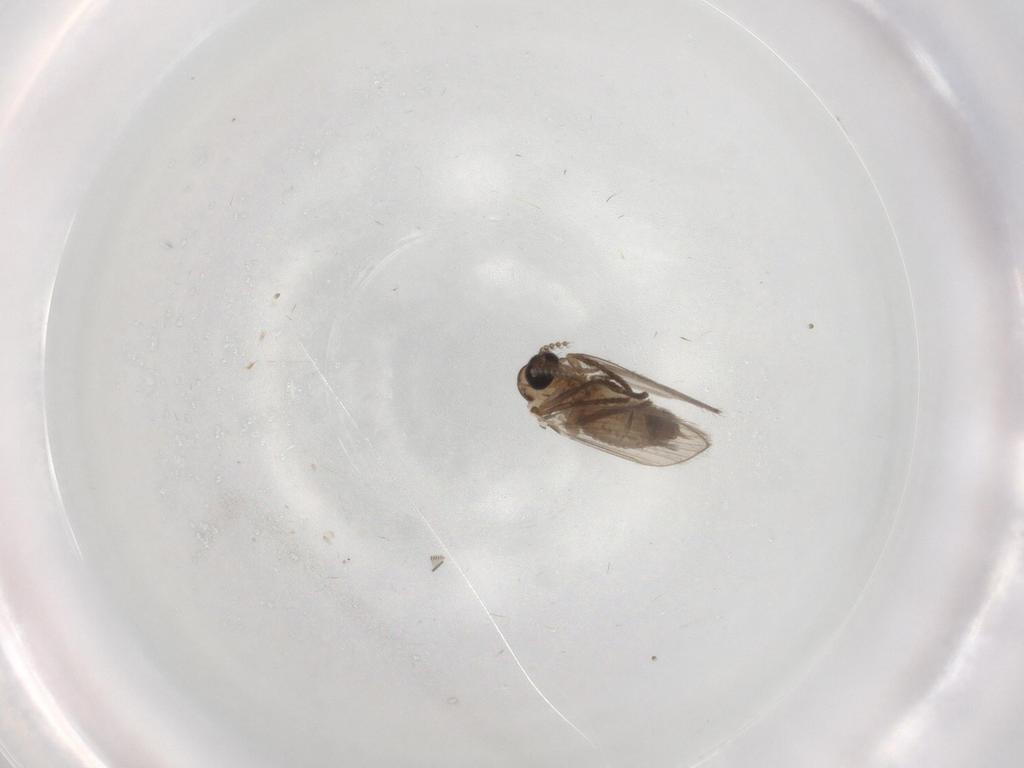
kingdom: Animalia
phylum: Arthropoda
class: Insecta
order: Diptera
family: Psychodidae
